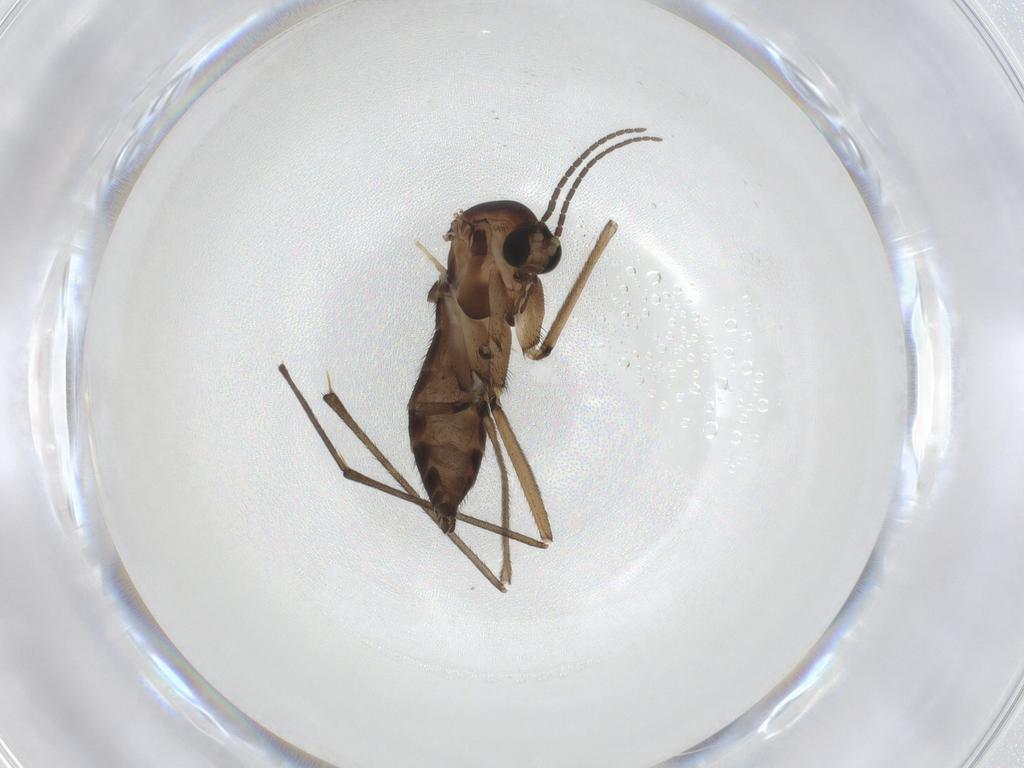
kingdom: Animalia
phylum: Arthropoda
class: Insecta
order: Diptera
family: Sciaridae
